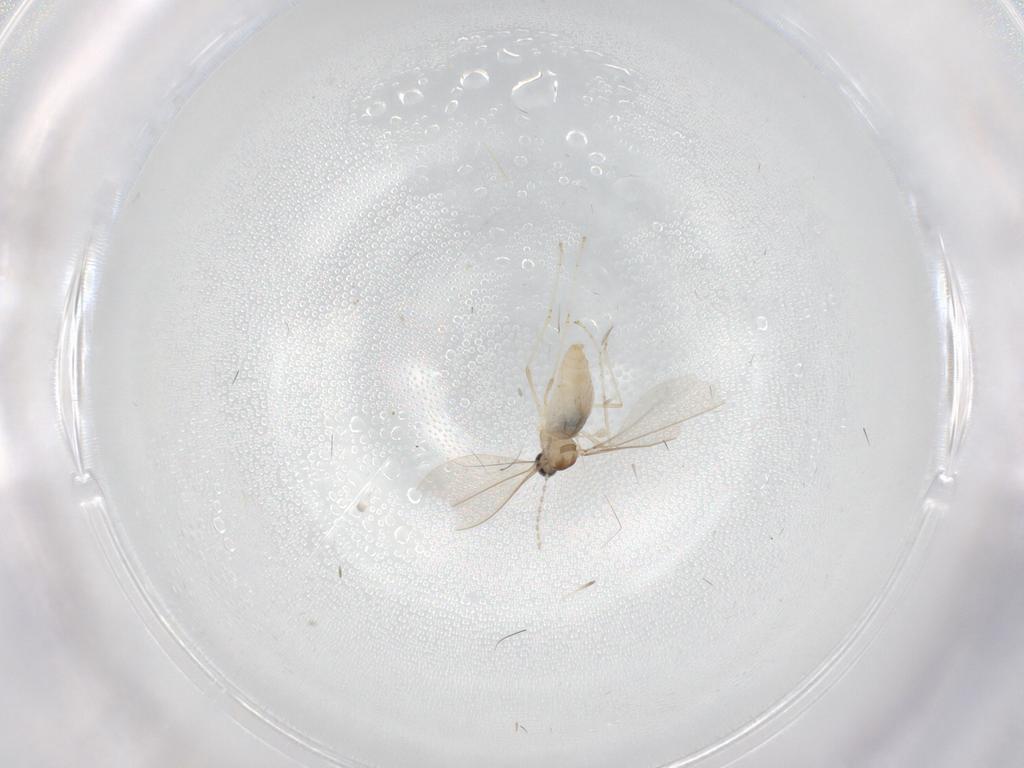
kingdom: Animalia
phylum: Arthropoda
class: Insecta
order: Diptera
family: Cecidomyiidae
